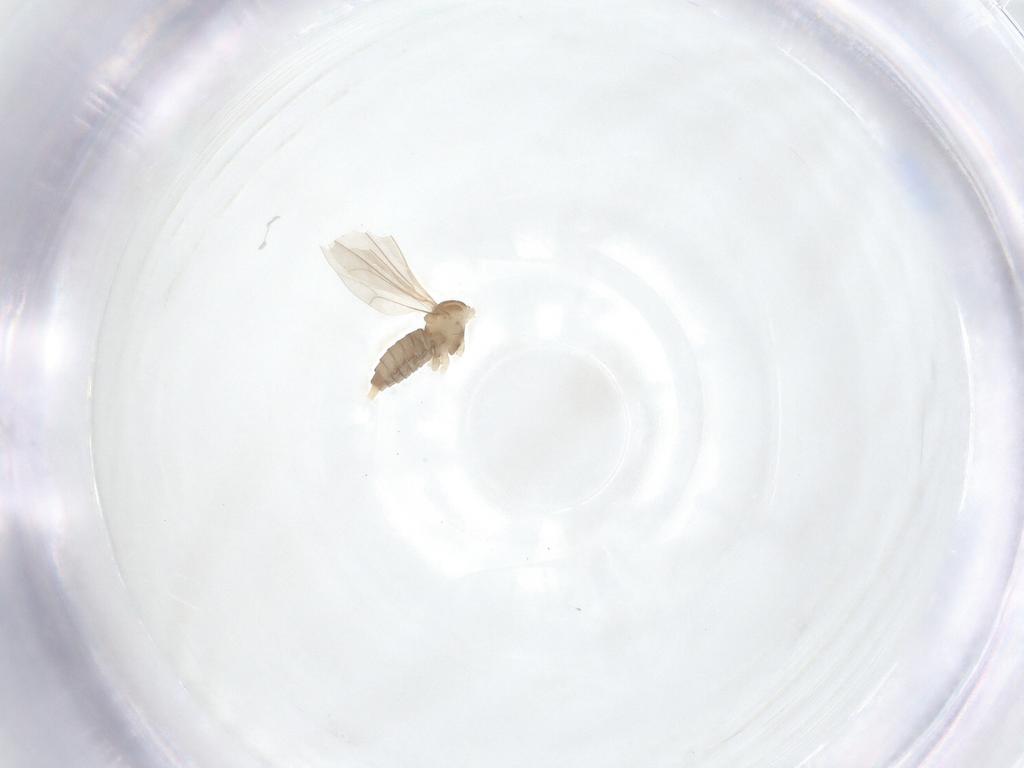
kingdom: Animalia
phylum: Arthropoda
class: Insecta
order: Diptera
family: Cecidomyiidae
